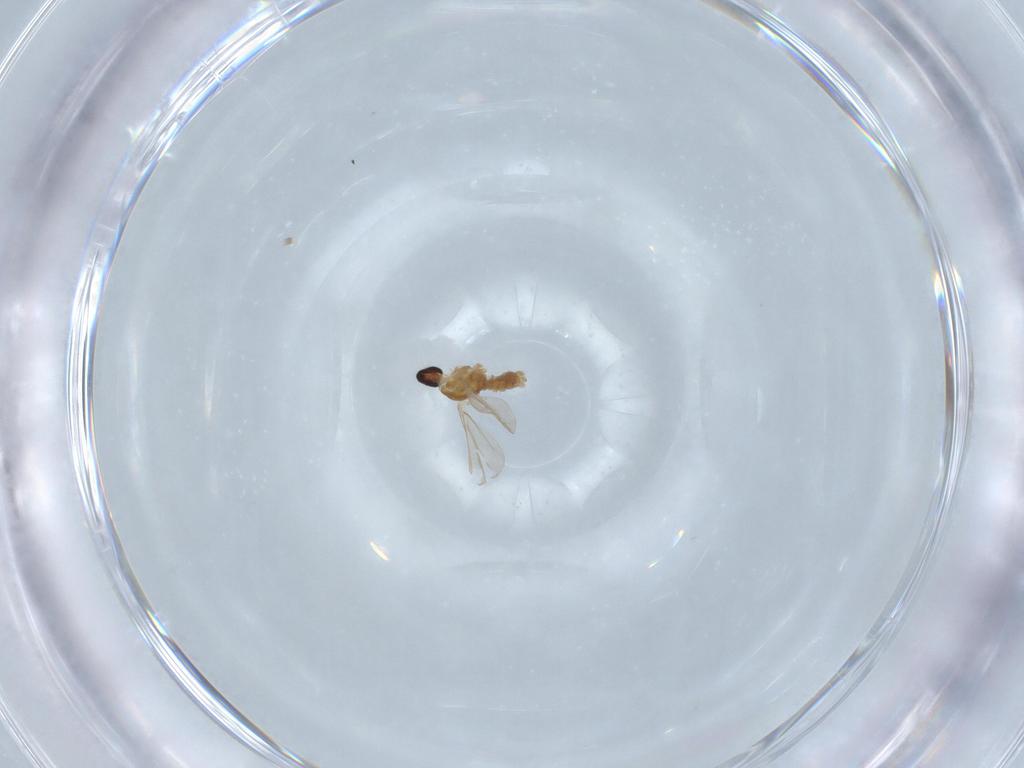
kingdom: Animalia
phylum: Arthropoda
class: Insecta
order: Diptera
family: Cecidomyiidae
